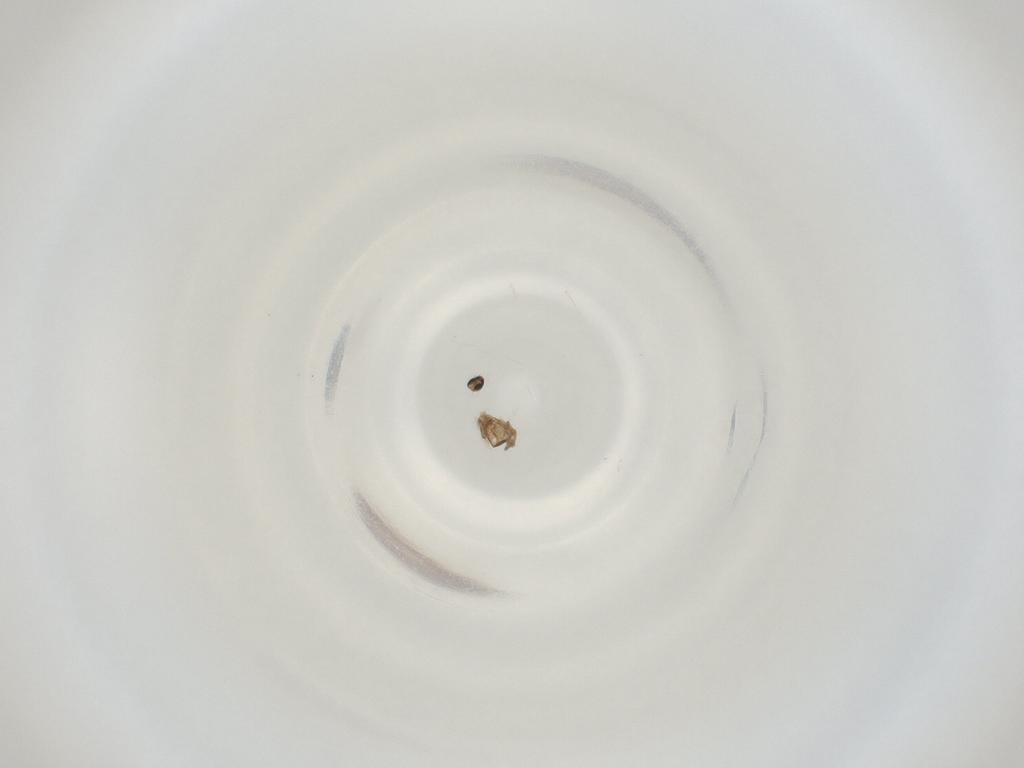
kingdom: Animalia
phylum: Arthropoda
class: Insecta
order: Diptera
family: Cecidomyiidae
